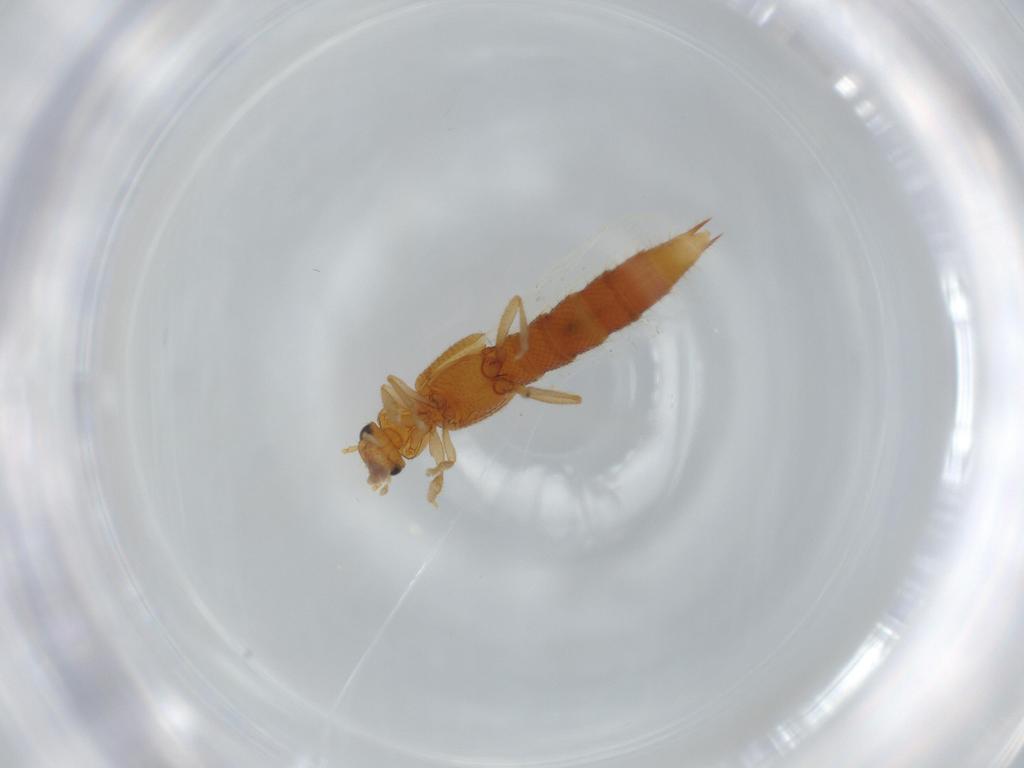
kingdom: Animalia
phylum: Arthropoda
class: Insecta
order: Coleoptera
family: Staphylinidae
